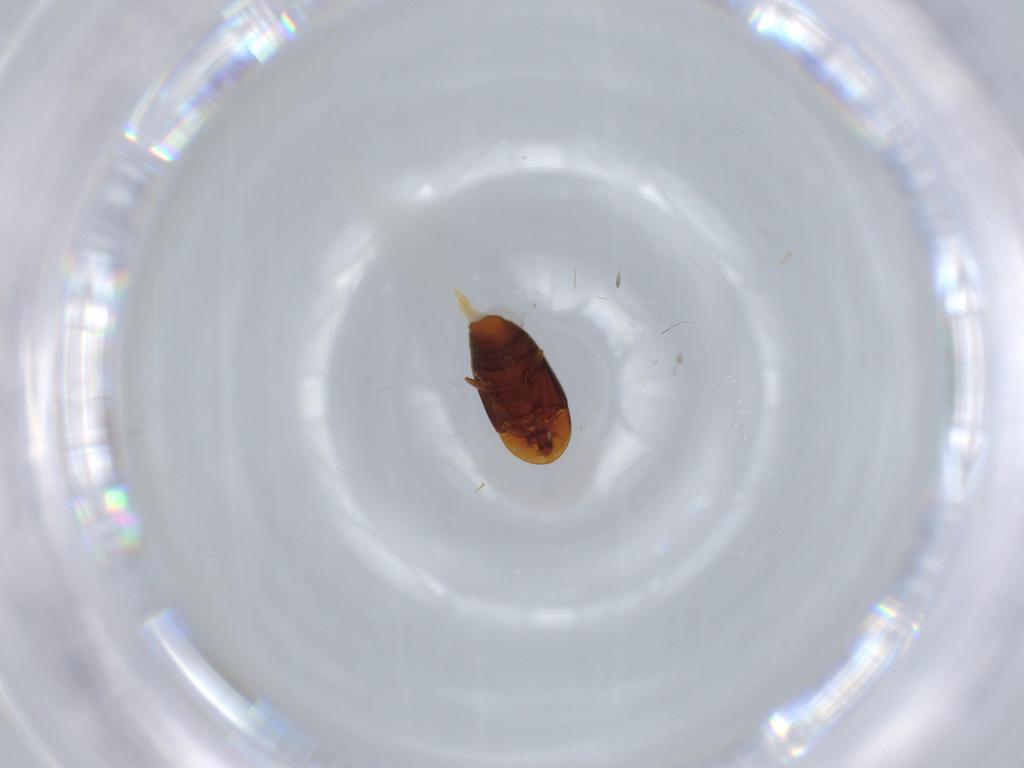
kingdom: Animalia
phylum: Arthropoda
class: Insecta
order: Coleoptera
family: Corylophidae
